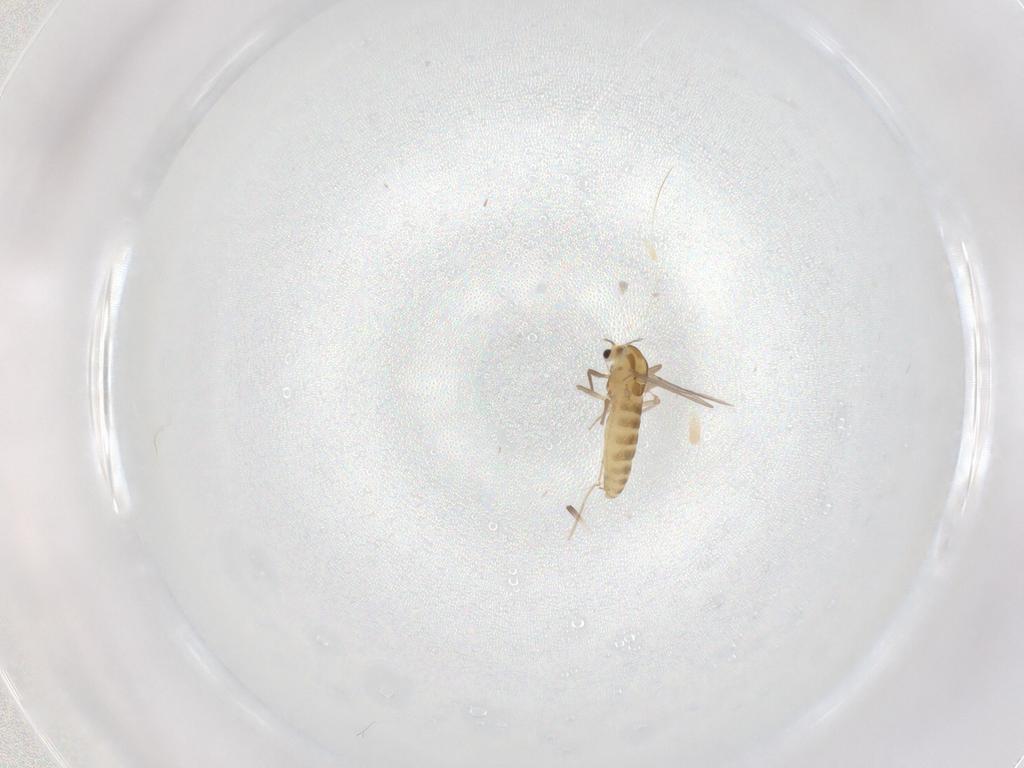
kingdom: Animalia
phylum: Arthropoda
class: Insecta
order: Diptera
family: Chironomidae
